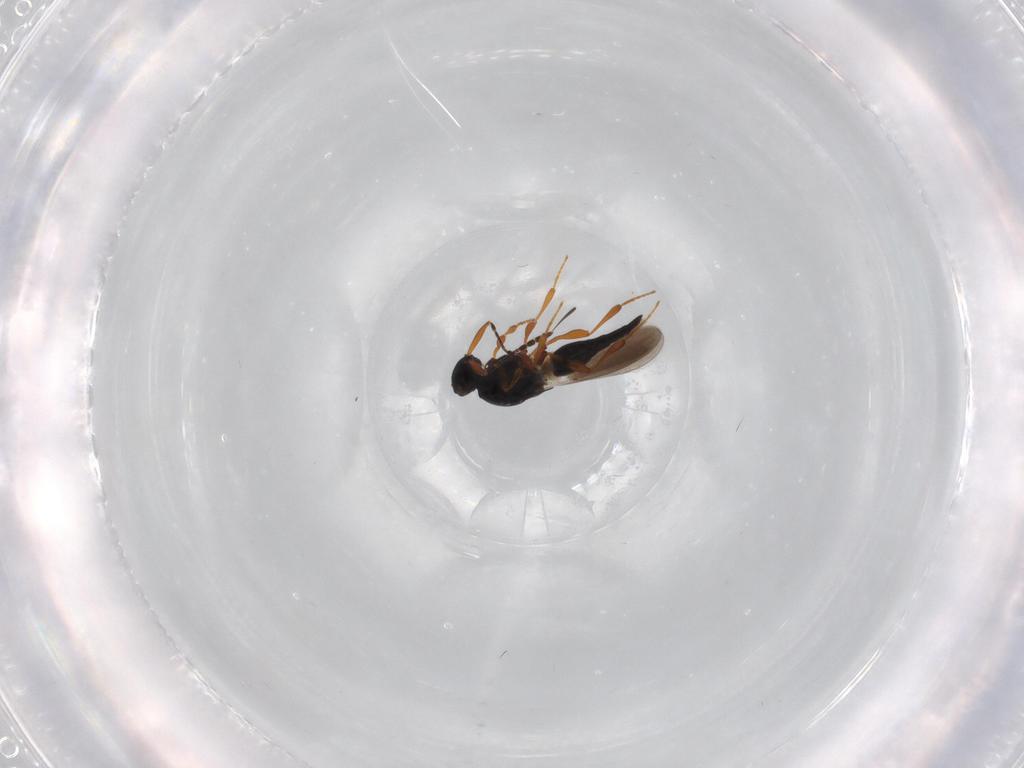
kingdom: Animalia
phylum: Arthropoda
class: Insecta
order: Hymenoptera
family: Platygastridae
